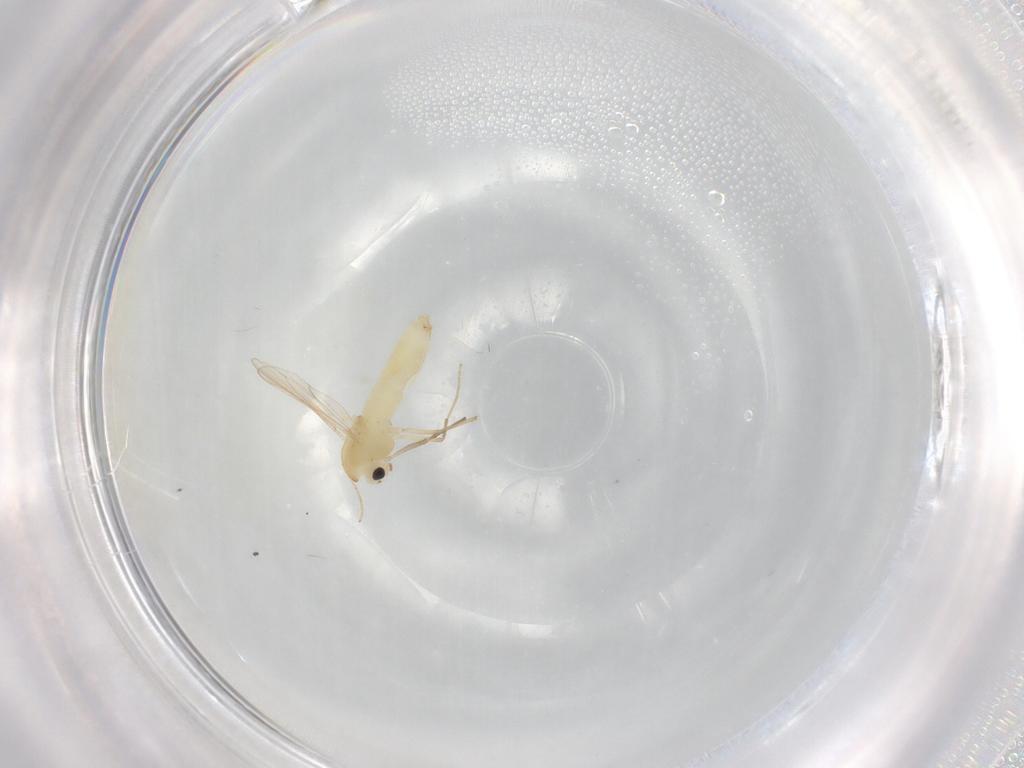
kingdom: Animalia
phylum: Arthropoda
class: Insecta
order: Diptera
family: Chironomidae
